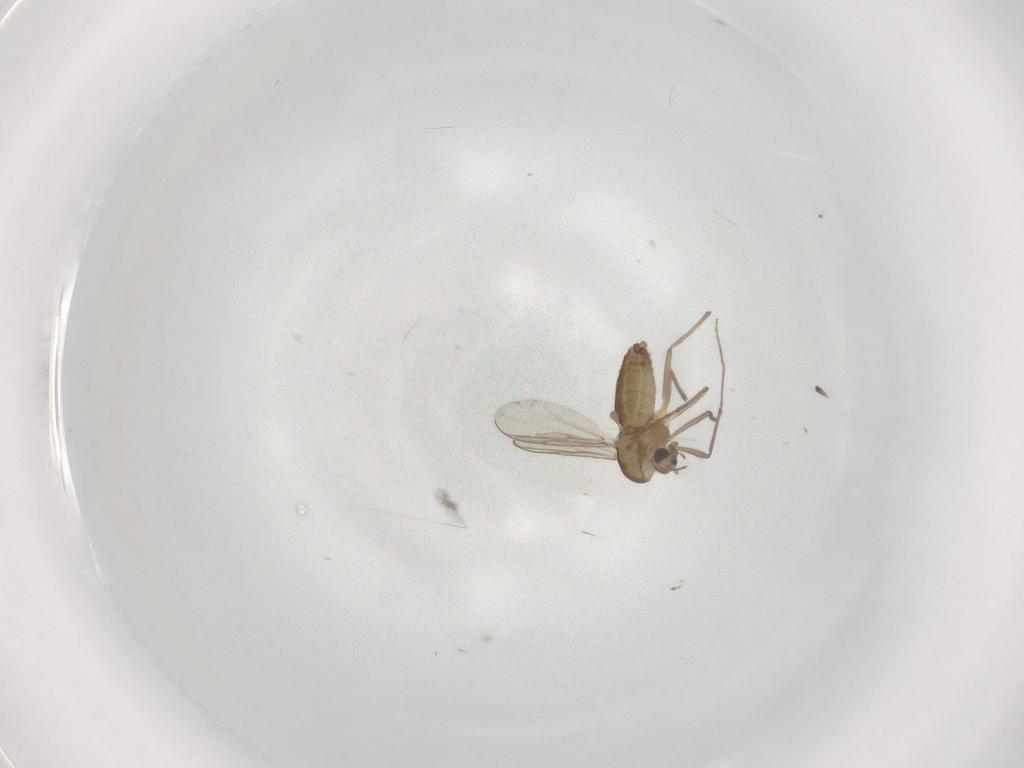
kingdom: Animalia
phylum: Arthropoda
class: Insecta
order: Diptera
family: Chironomidae
